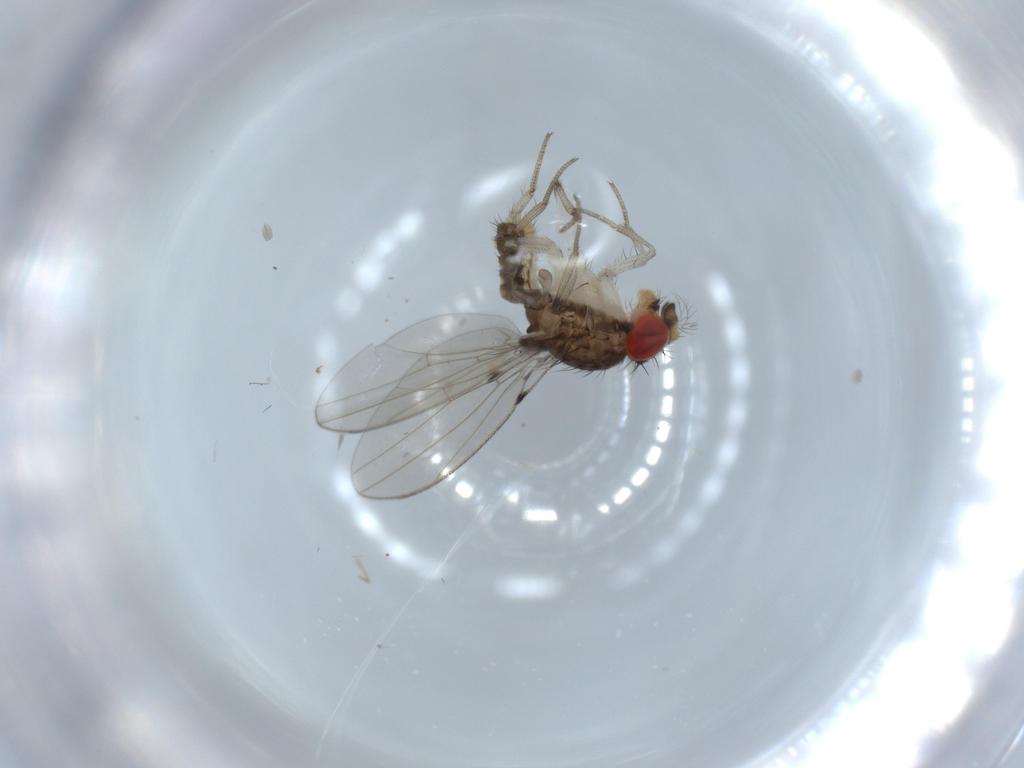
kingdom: Animalia
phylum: Arthropoda
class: Insecta
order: Diptera
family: Drosophilidae
